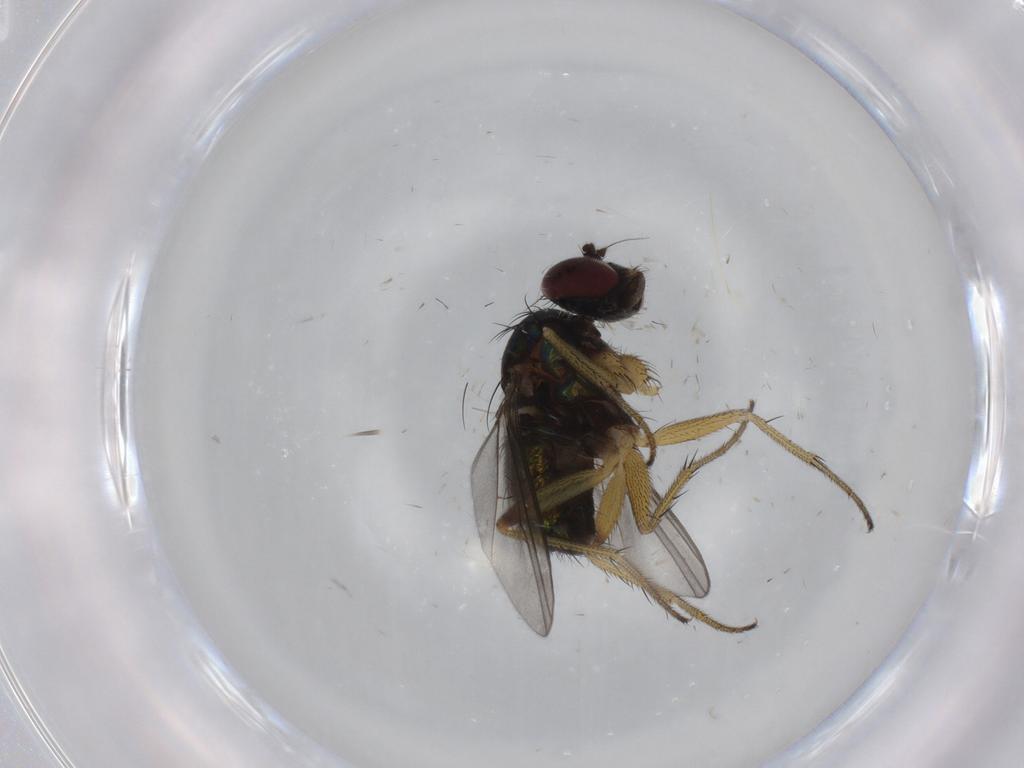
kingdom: Animalia
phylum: Arthropoda
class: Insecta
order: Diptera
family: Dolichopodidae
